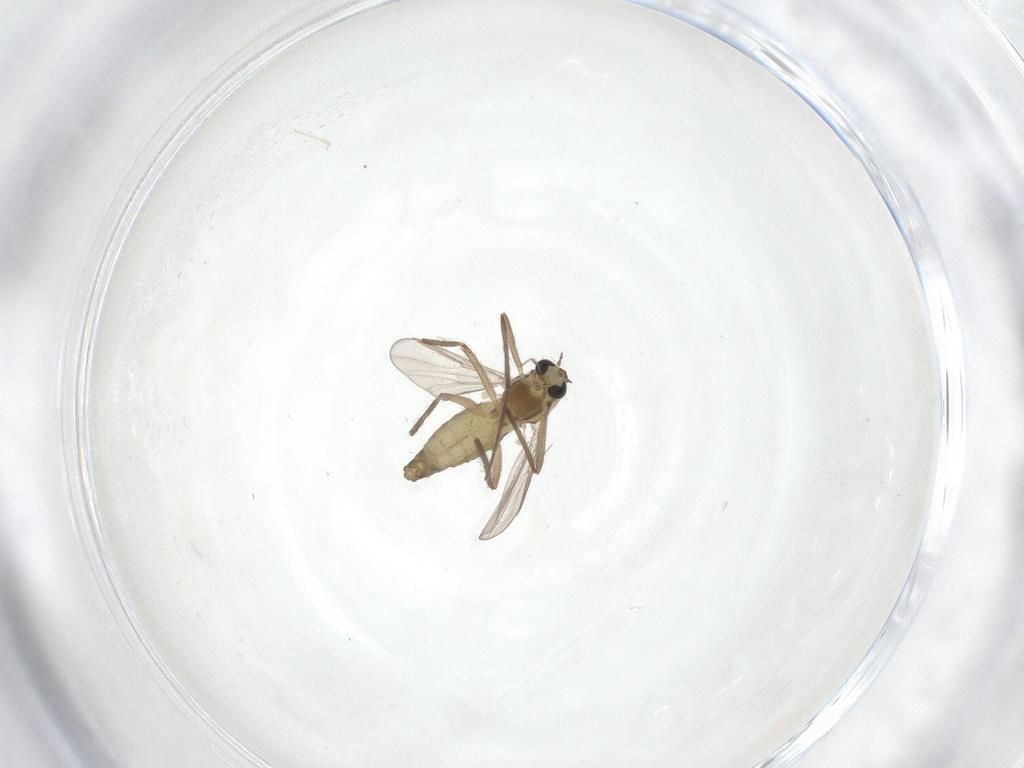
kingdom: Animalia
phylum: Arthropoda
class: Insecta
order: Diptera
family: Chironomidae
